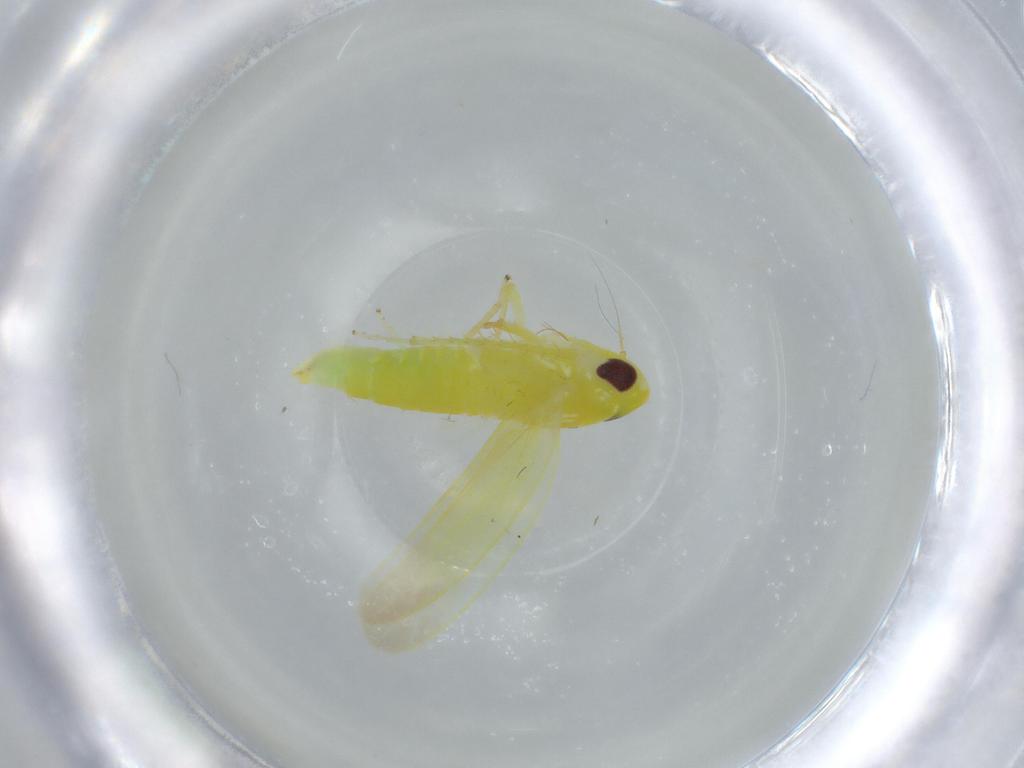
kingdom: Animalia
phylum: Arthropoda
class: Insecta
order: Hemiptera
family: Cicadellidae
